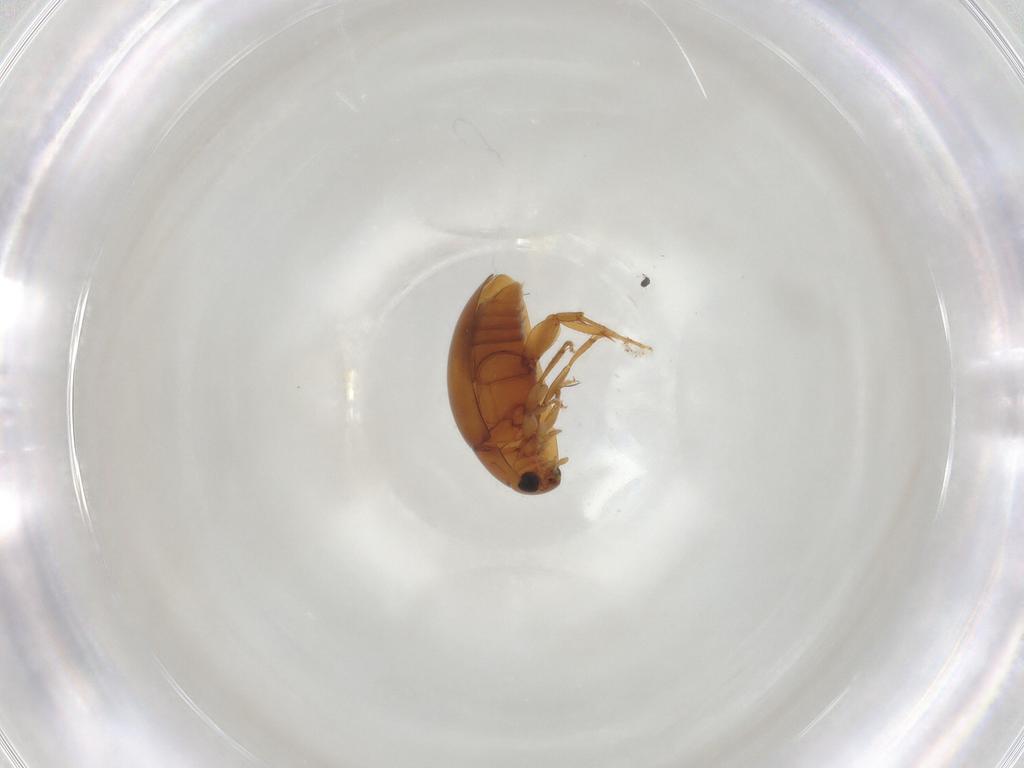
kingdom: Animalia
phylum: Arthropoda
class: Insecta
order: Coleoptera
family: Phalacridae
